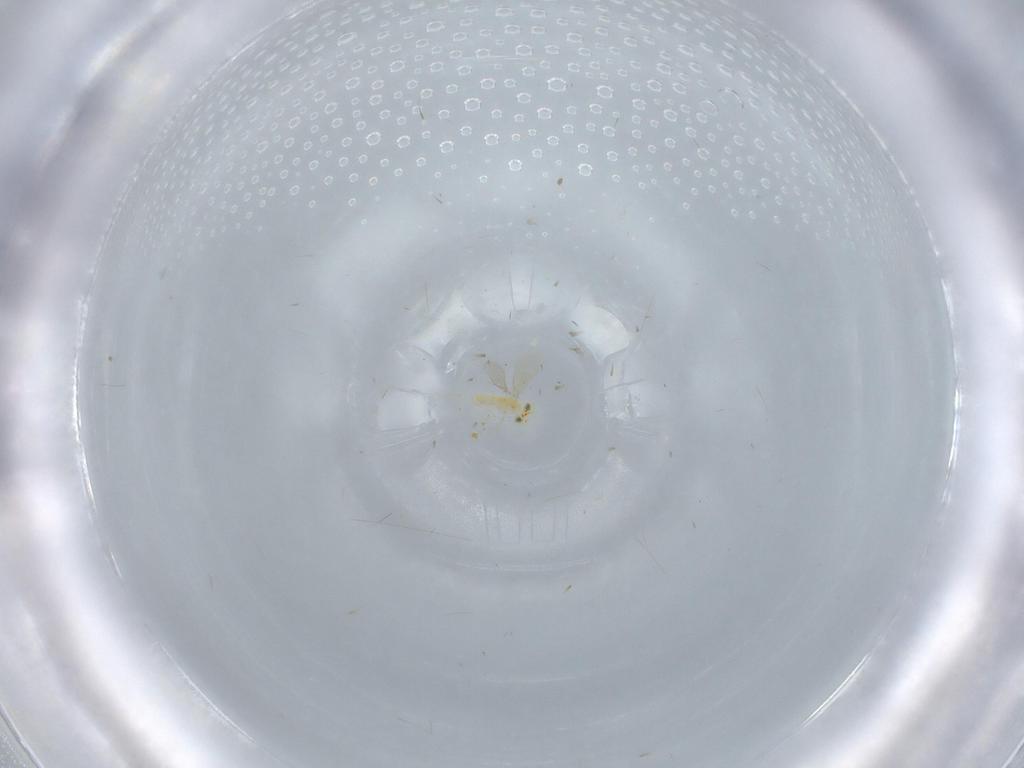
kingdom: Animalia
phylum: Arthropoda
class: Insecta
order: Hymenoptera
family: Aphelinidae
